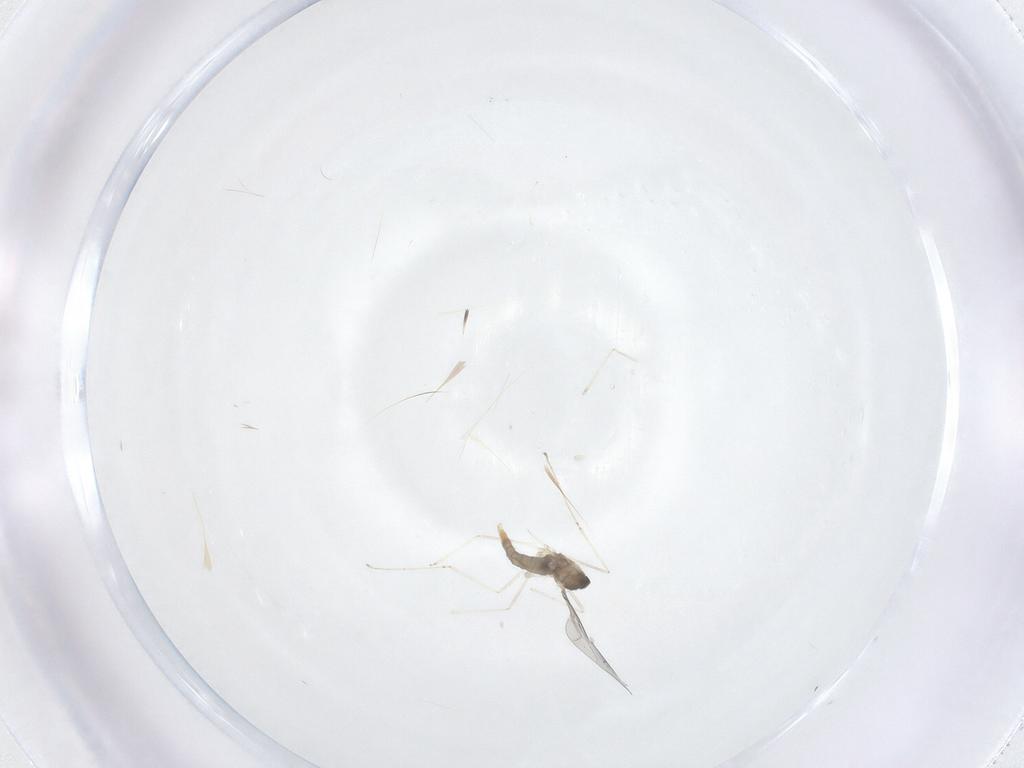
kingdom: Animalia
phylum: Arthropoda
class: Insecta
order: Diptera
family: Cecidomyiidae
